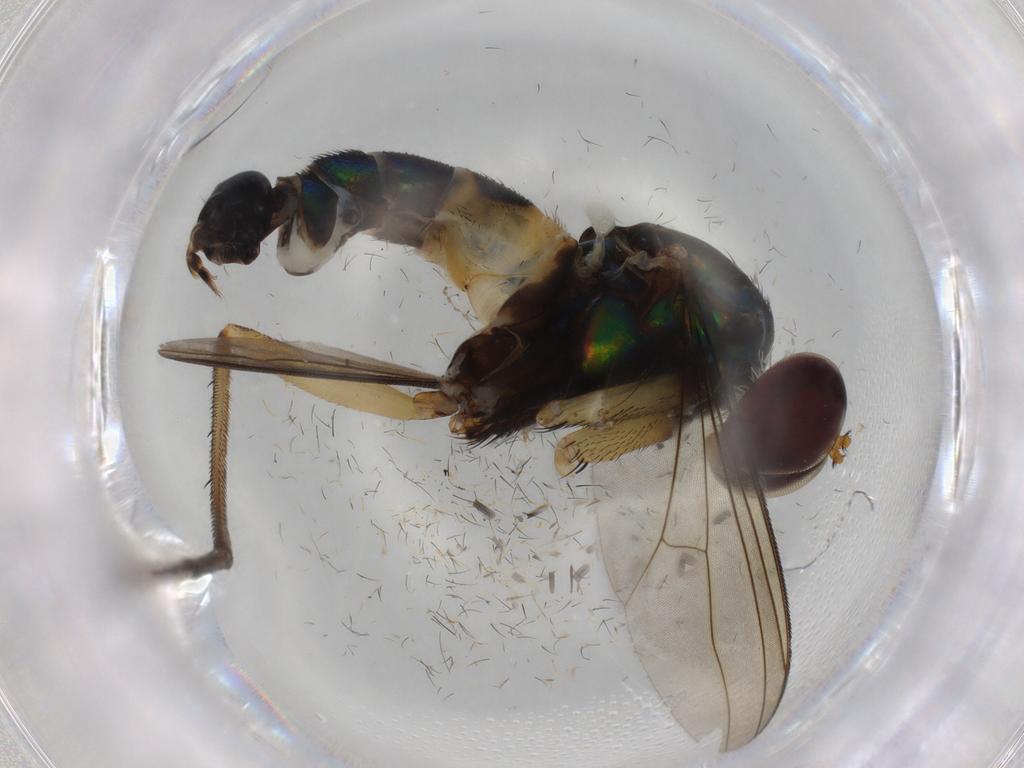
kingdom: Animalia
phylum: Arthropoda
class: Insecta
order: Diptera
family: Dolichopodidae
